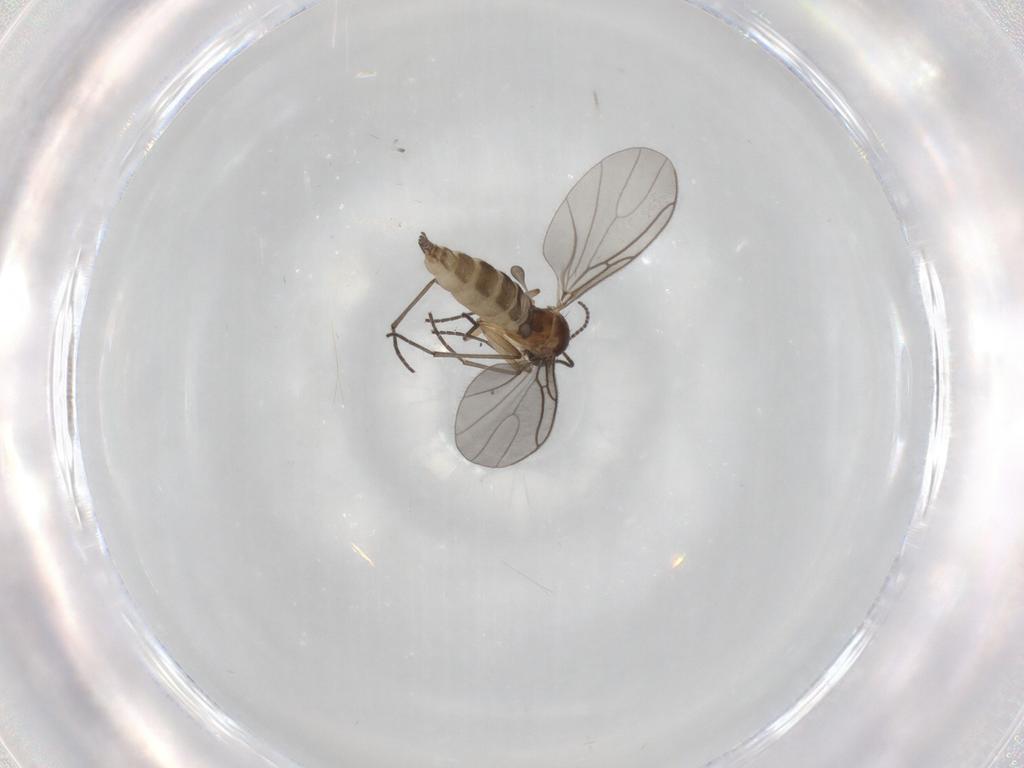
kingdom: Animalia
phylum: Arthropoda
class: Insecta
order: Diptera
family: Sciaridae
